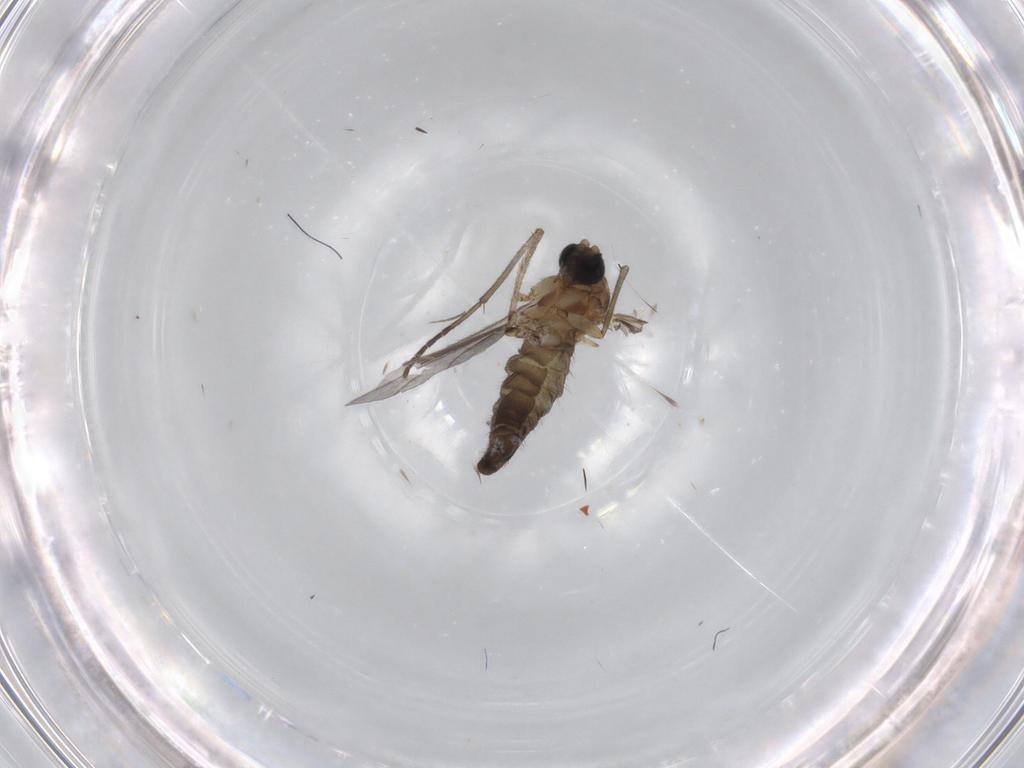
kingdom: Animalia
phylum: Arthropoda
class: Insecta
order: Diptera
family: Sciaridae
